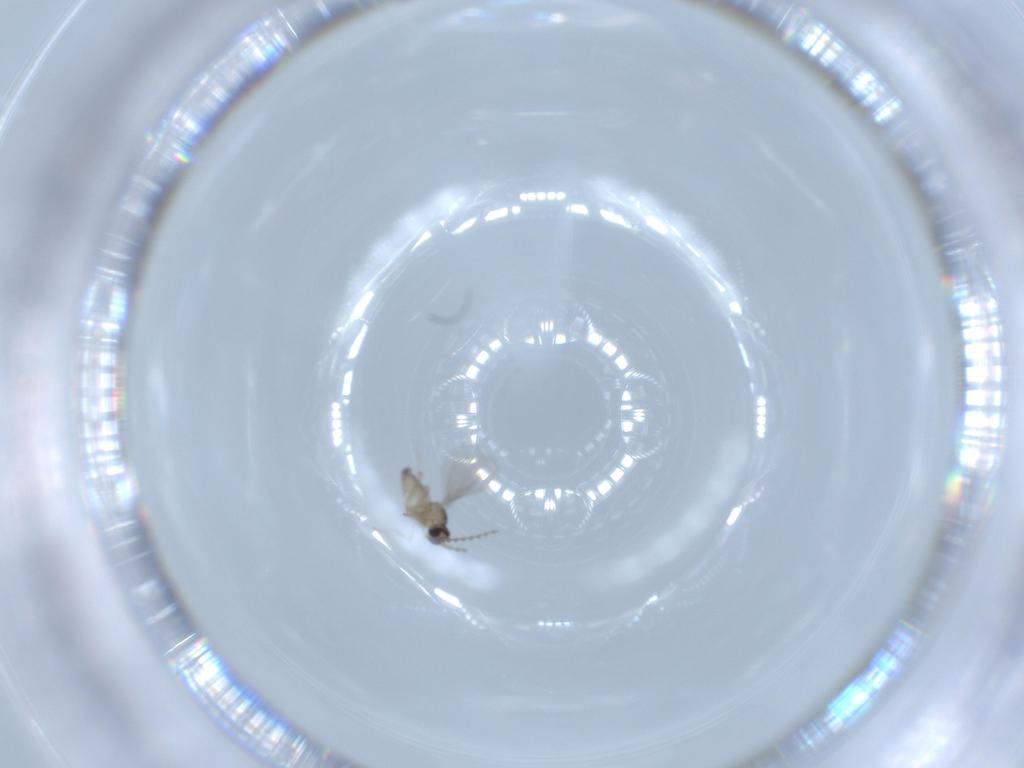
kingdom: Animalia
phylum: Arthropoda
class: Insecta
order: Diptera
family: Cecidomyiidae
